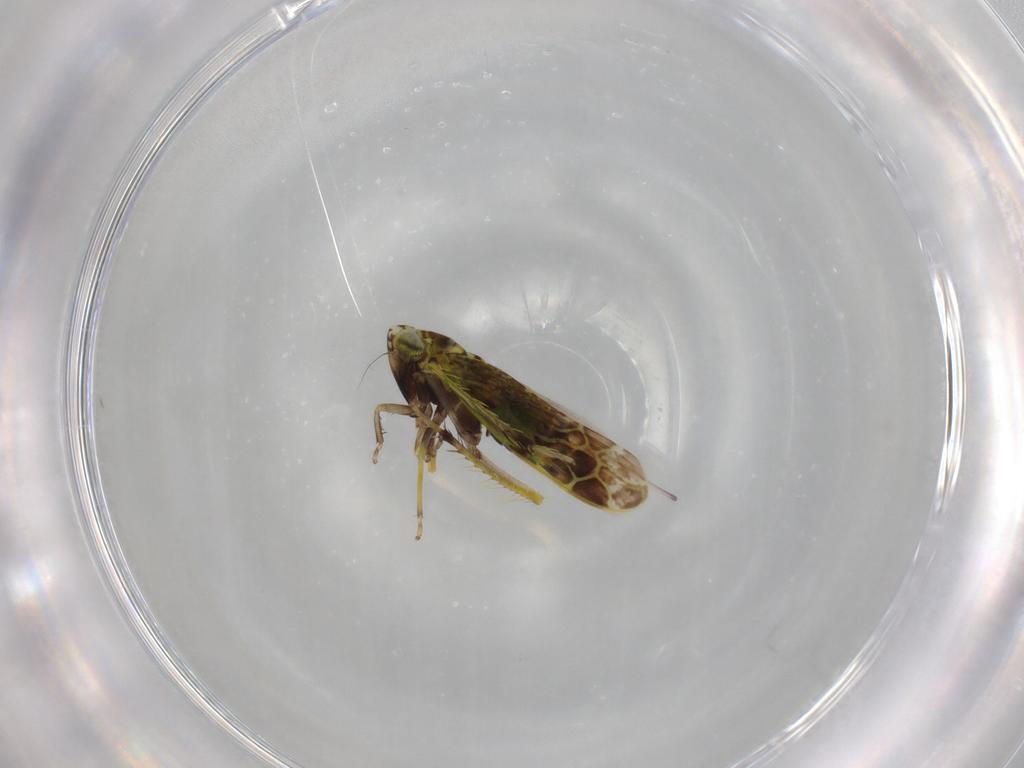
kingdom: Animalia
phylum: Arthropoda
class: Insecta
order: Hemiptera
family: Cicadellidae
